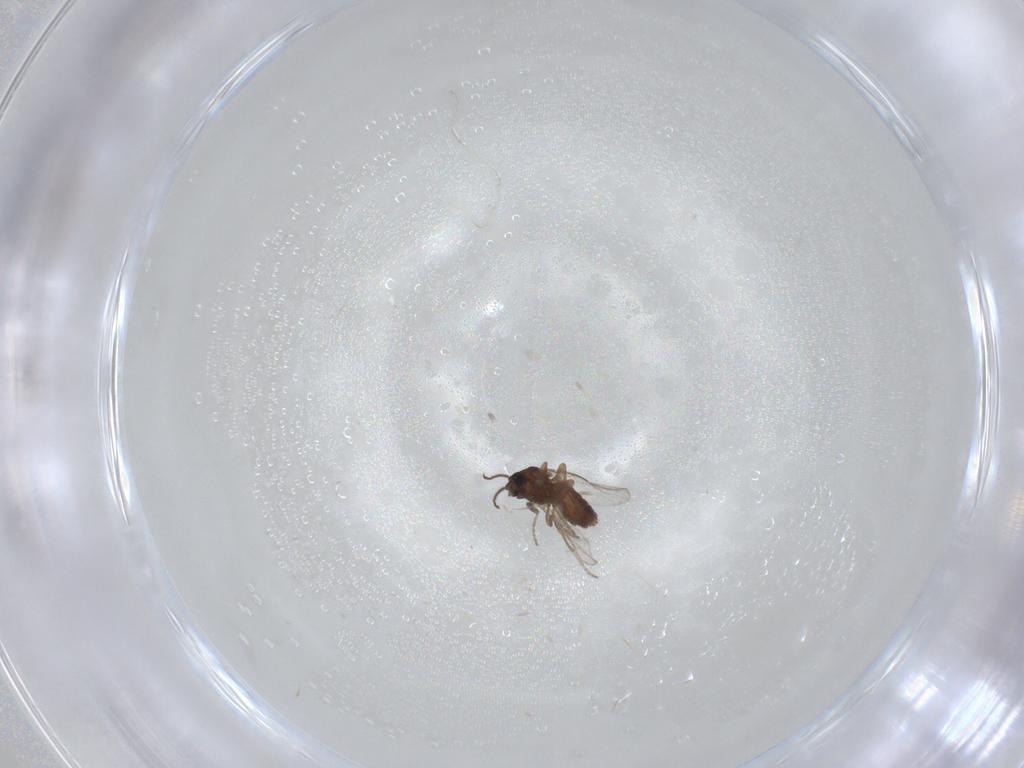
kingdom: Animalia
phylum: Arthropoda
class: Insecta
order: Diptera
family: Ceratopogonidae
